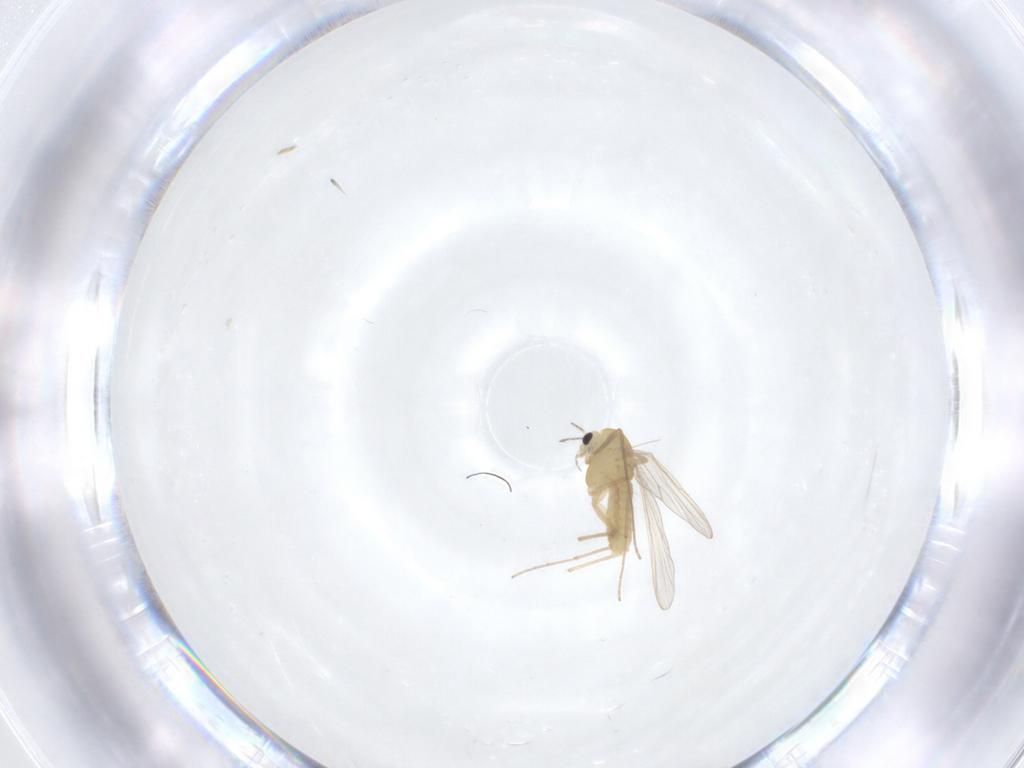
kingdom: Animalia
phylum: Arthropoda
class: Insecta
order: Diptera
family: Chironomidae
